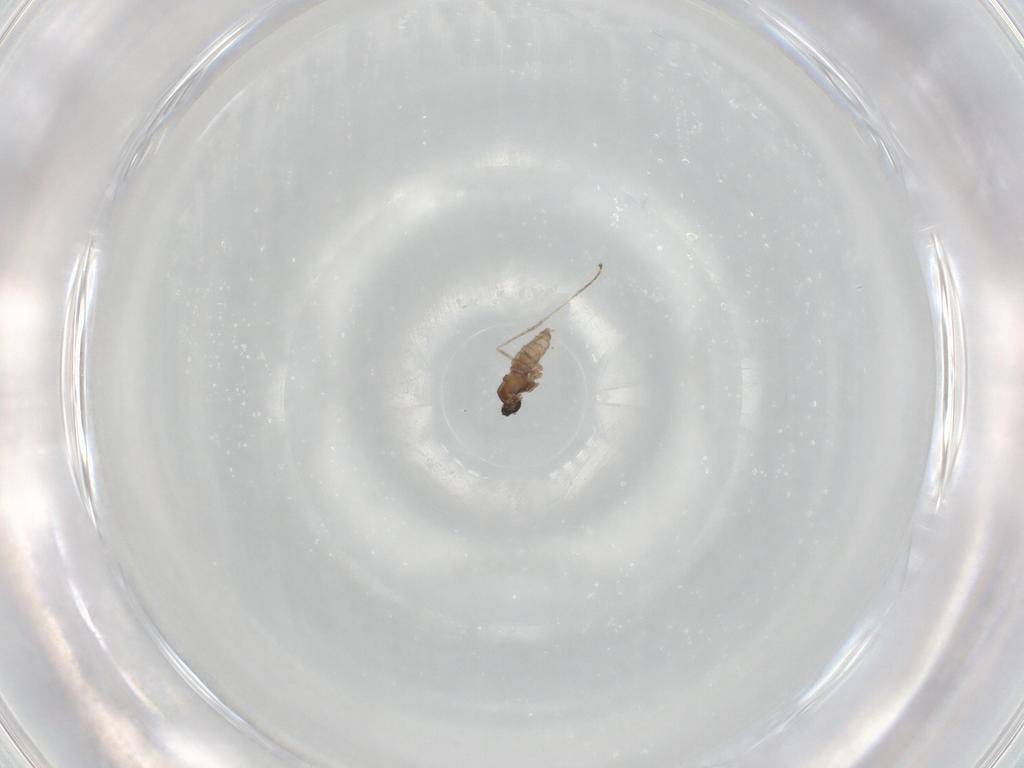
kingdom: Animalia
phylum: Arthropoda
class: Insecta
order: Diptera
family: Cecidomyiidae
